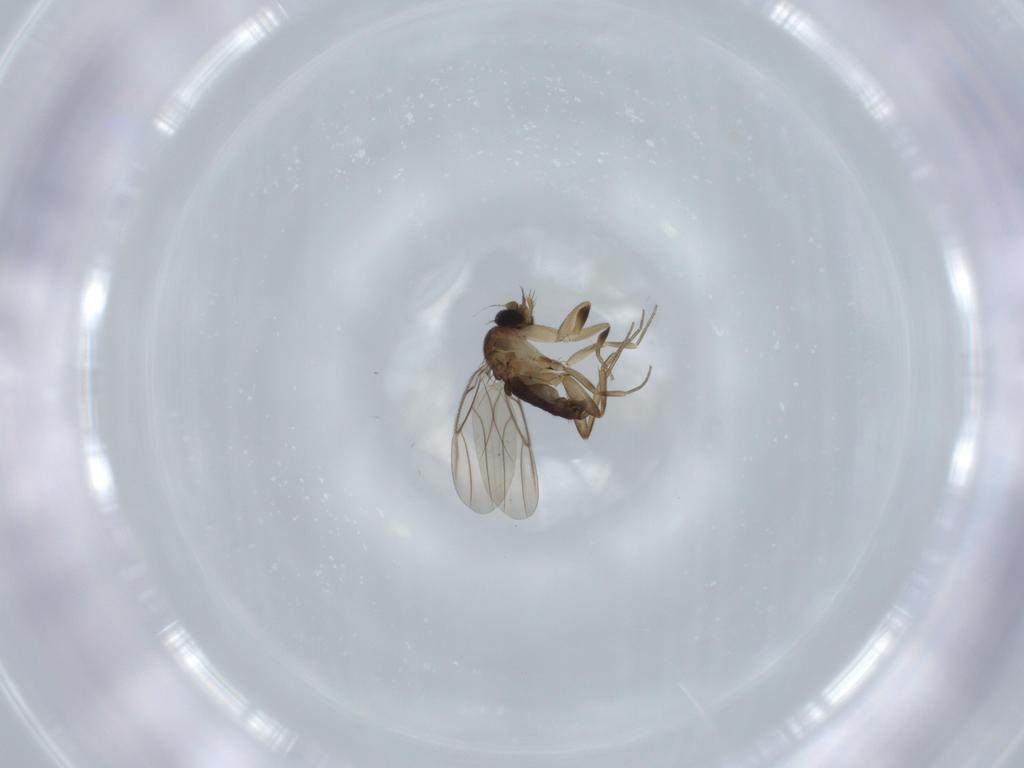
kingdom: Animalia
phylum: Arthropoda
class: Insecta
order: Diptera
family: Phoridae
